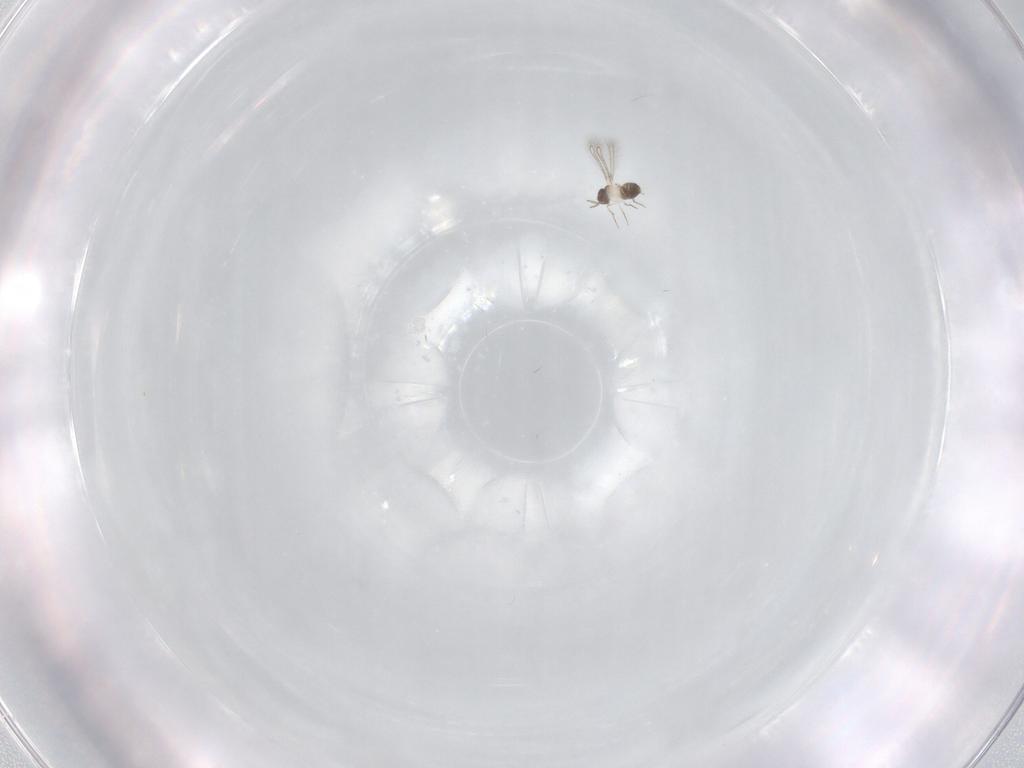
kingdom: Animalia
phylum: Arthropoda
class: Insecta
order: Hymenoptera
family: Mymaridae
